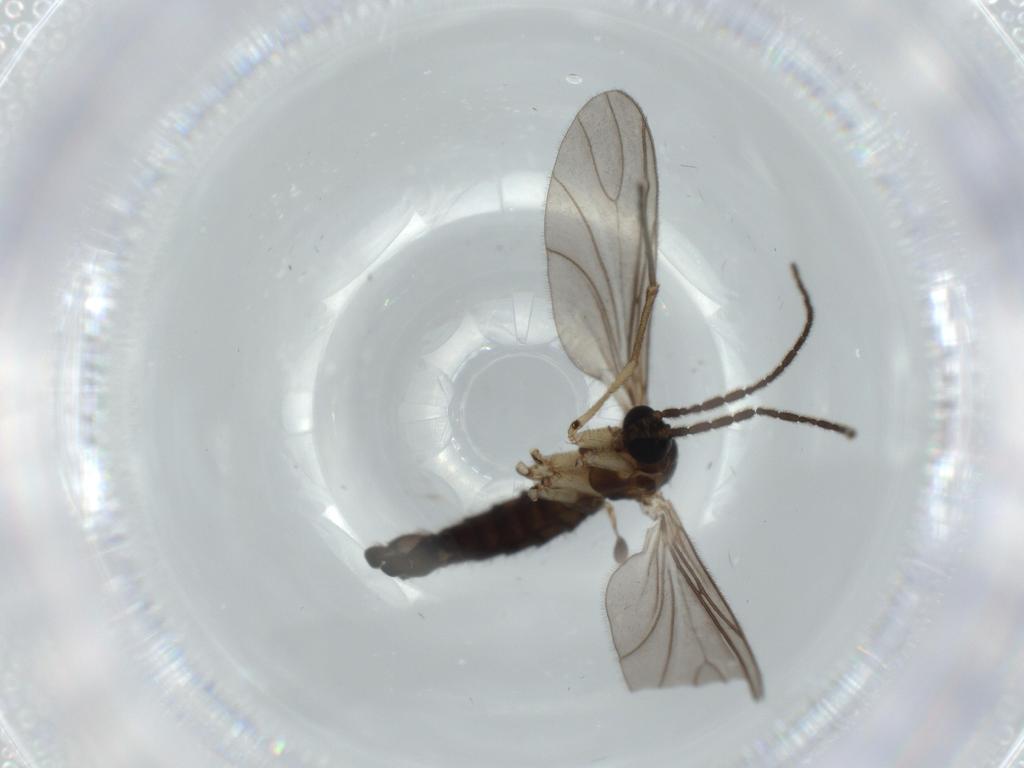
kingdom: Animalia
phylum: Arthropoda
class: Insecta
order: Diptera
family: Sciaridae
